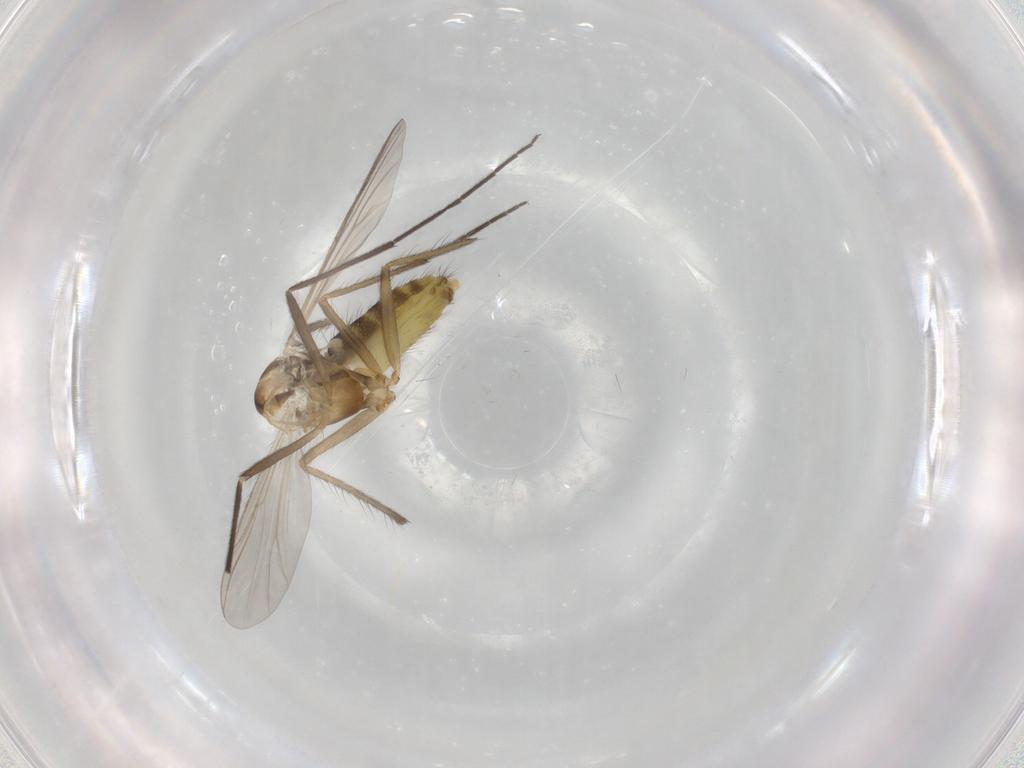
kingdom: Animalia
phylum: Arthropoda
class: Insecta
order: Diptera
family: Chironomidae
